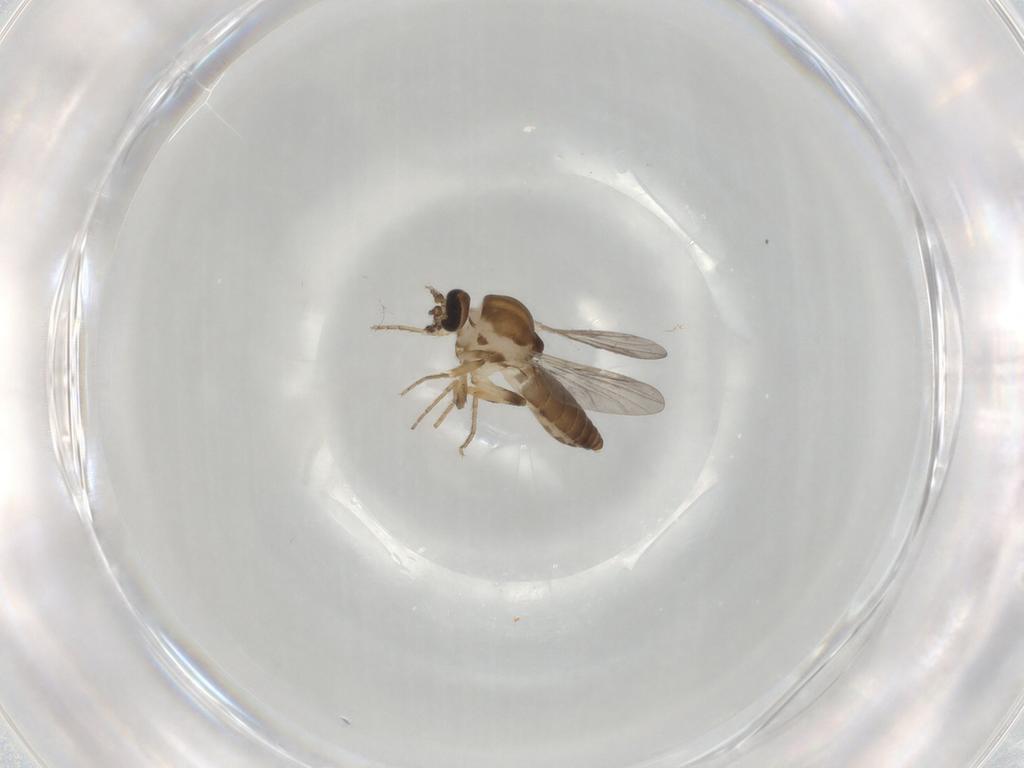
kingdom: Animalia
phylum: Arthropoda
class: Insecta
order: Diptera
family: Ceratopogonidae
